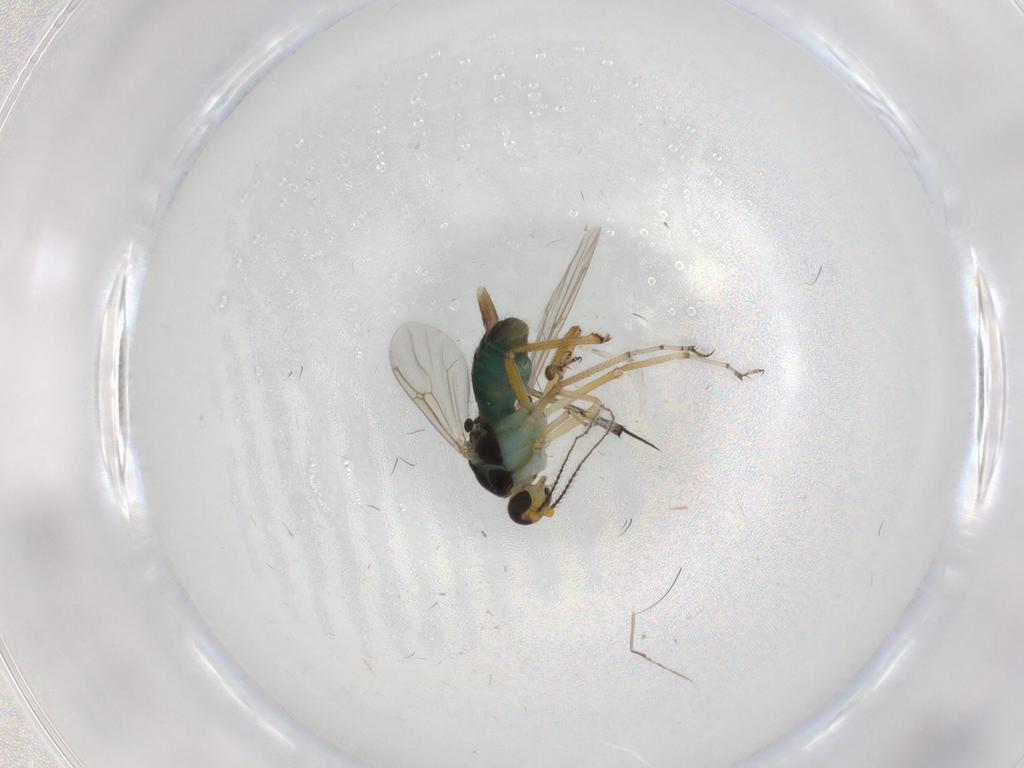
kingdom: Animalia
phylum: Arthropoda
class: Insecta
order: Diptera
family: Ceratopogonidae
